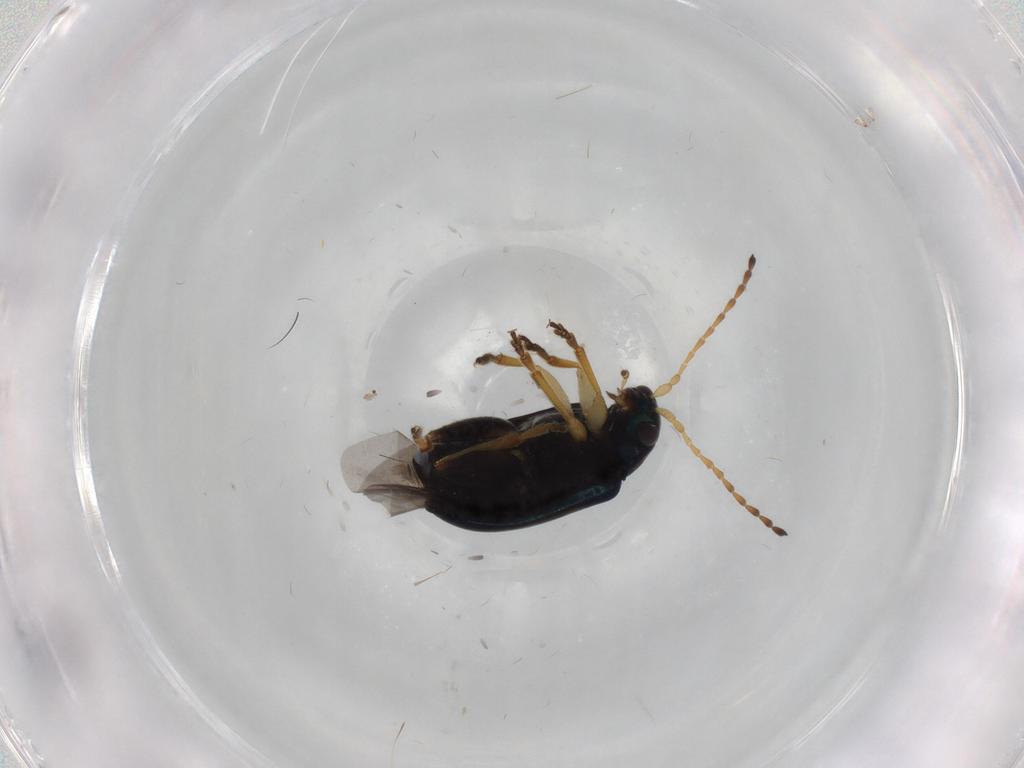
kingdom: Animalia
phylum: Arthropoda
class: Insecta
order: Coleoptera
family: Chrysomelidae
